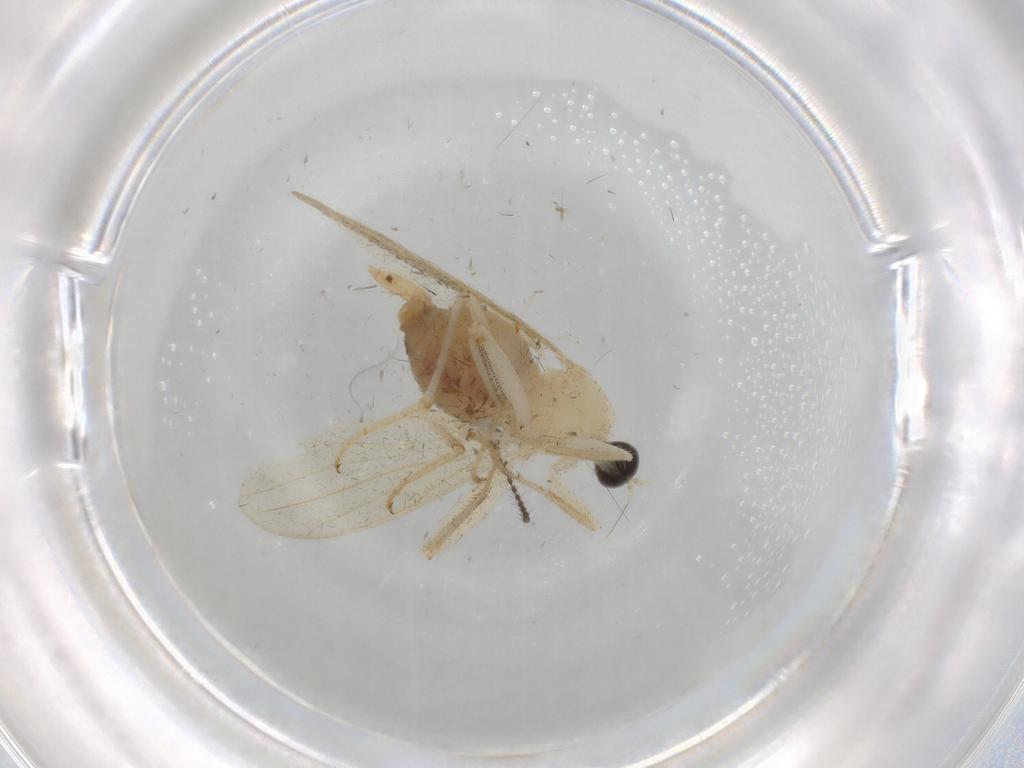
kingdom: Animalia
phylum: Arthropoda
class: Insecta
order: Diptera
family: Hybotidae
